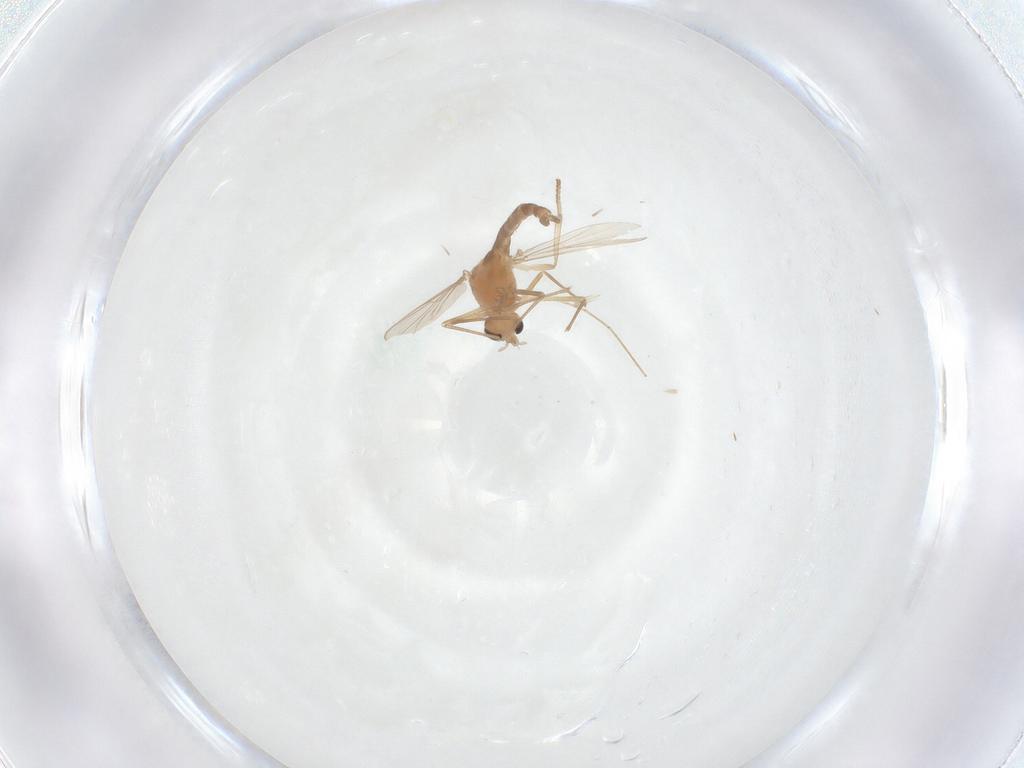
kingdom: Animalia
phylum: Arthropoda
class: Insecta
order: Diptera
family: Chironomidae
